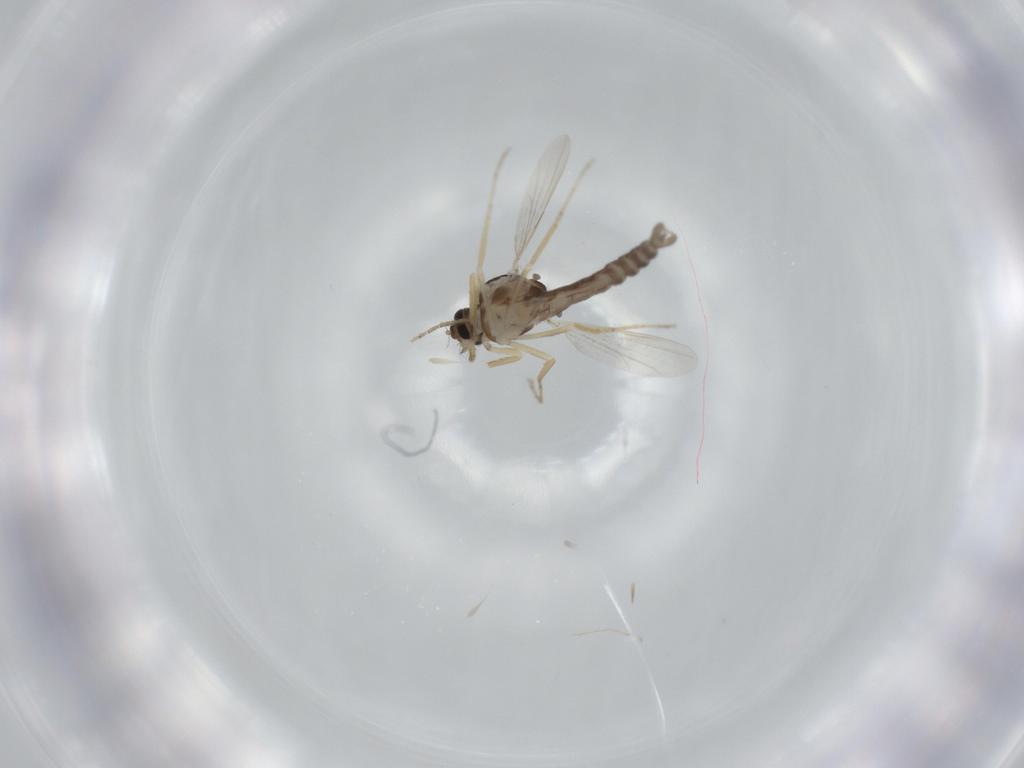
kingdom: Animalia
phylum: Arthropoda
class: Insecta
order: Diptera
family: Ceratopogonidae
